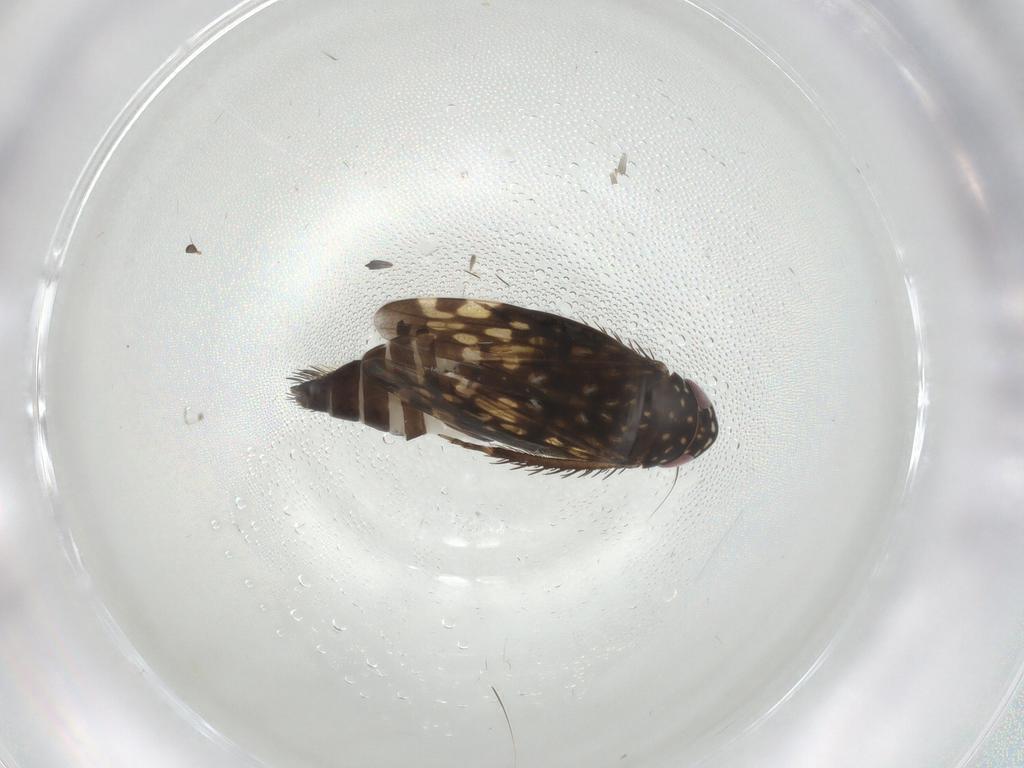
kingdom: Animalia
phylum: Arthropoda
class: Insecta
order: Hemiptera
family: Cicadellidae
